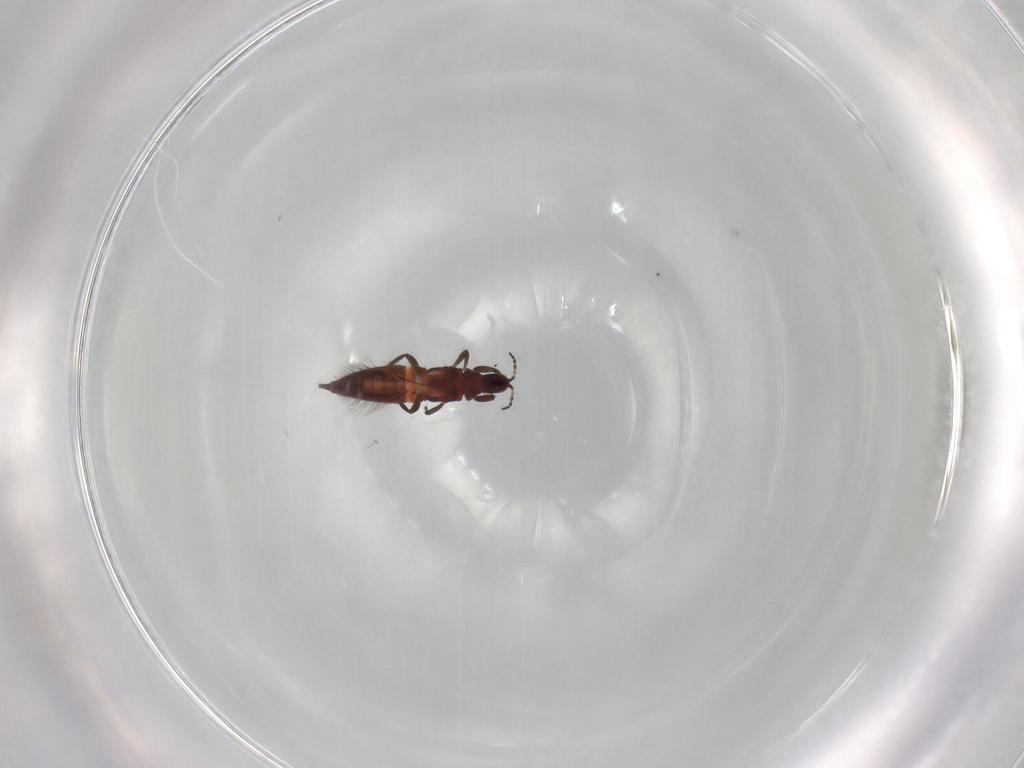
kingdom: Animalia
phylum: Arthropoda
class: Insecta
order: Thysanoptera
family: Phlaeothripidae
